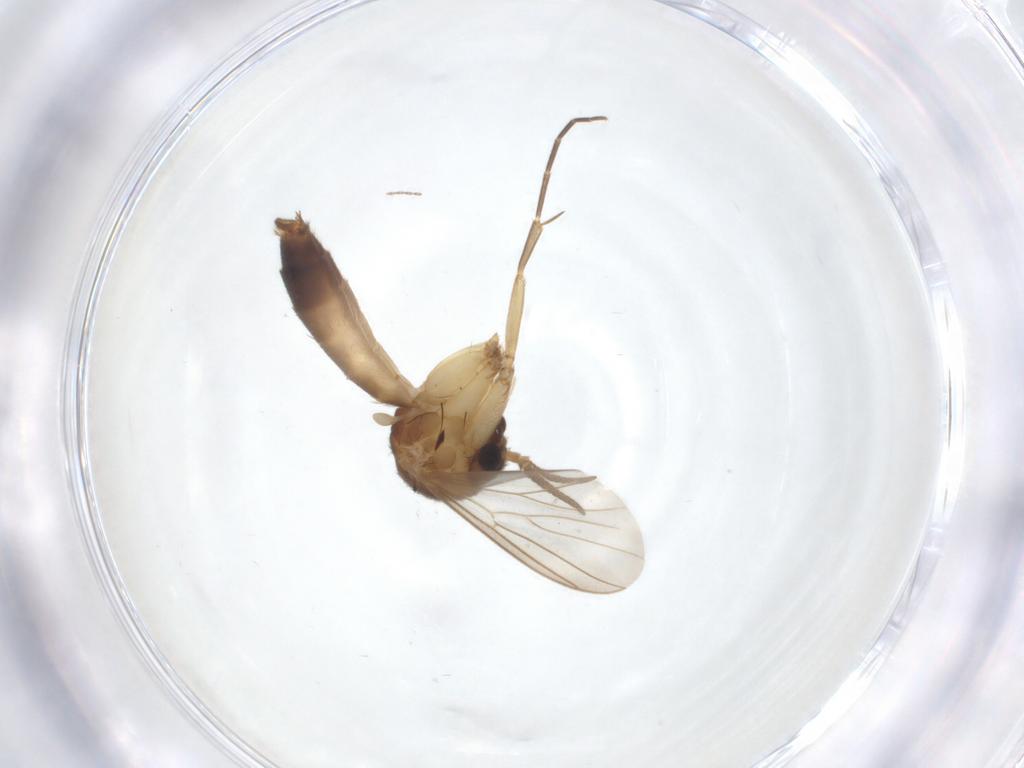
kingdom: Animalia
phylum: Arthropoda
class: Insecta
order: Diptera
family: Mycetophilidae
